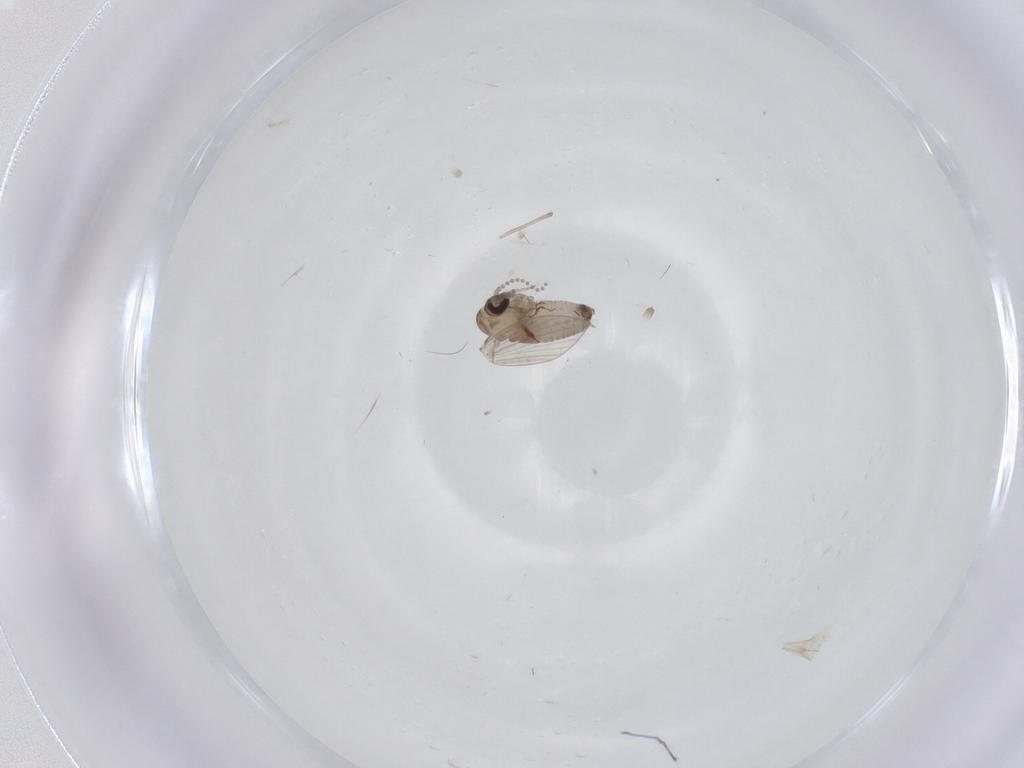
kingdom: Animalia
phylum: Arthropoda
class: Insecta
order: Diptera
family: Psychodidae
